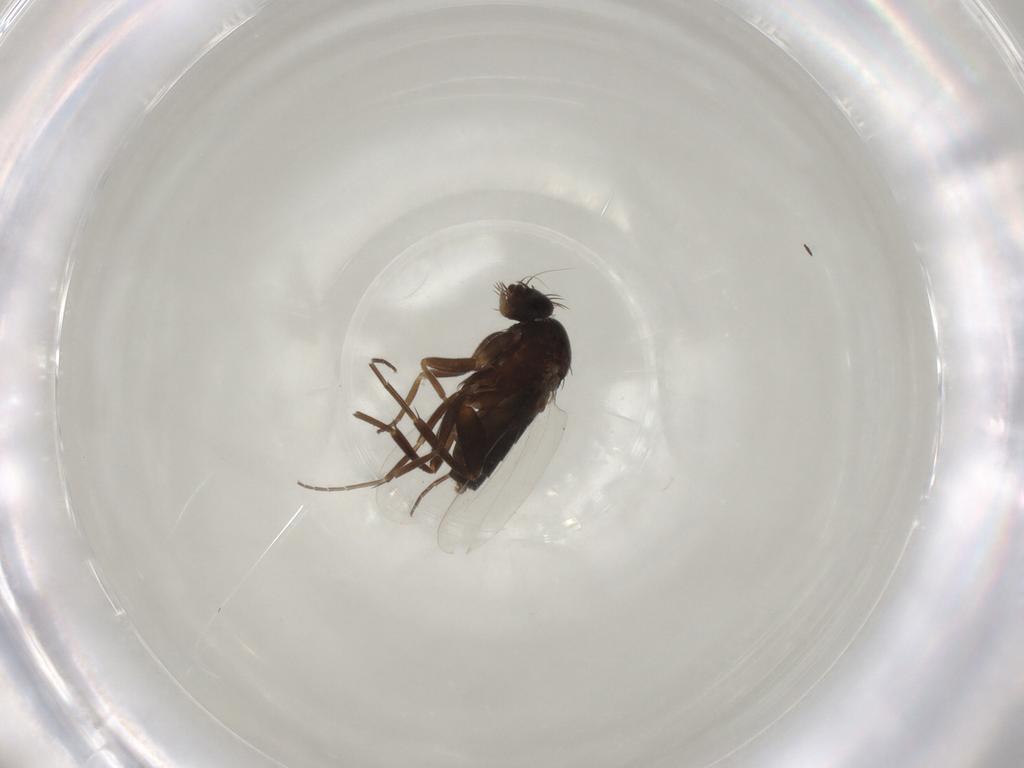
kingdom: Animalia
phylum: Arthropoda
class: Insecta
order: Diptera
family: Phoridae
